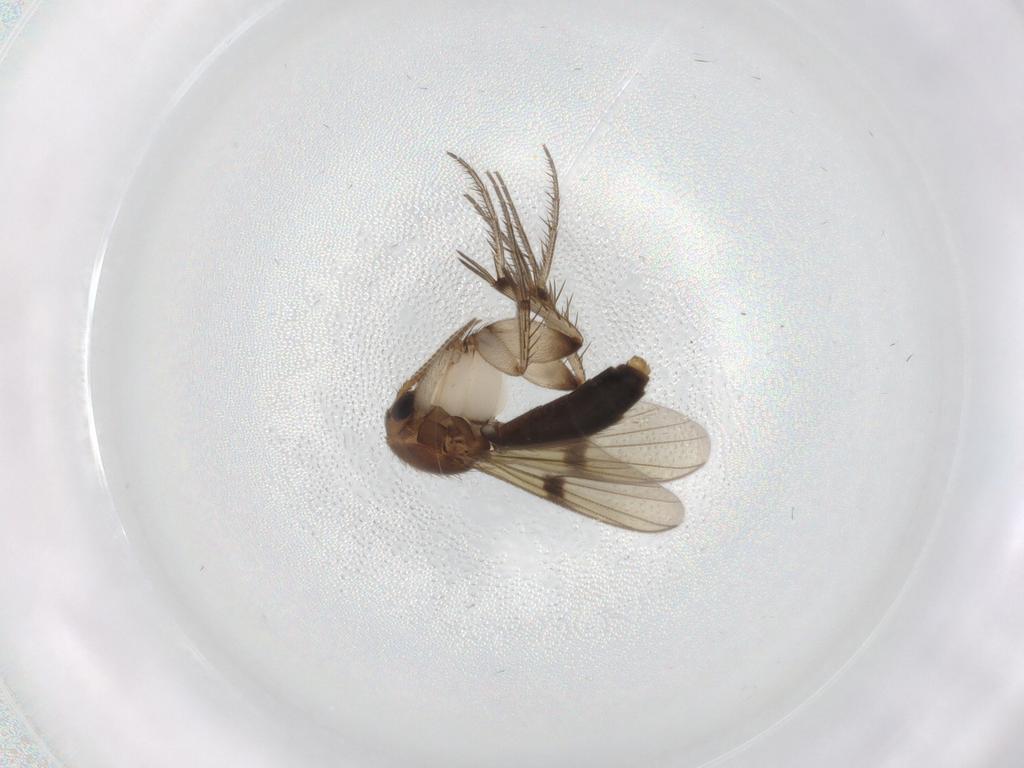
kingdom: Animalia
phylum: Arthropoda
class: Insecta
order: Diptera
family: Mycetophilidae
